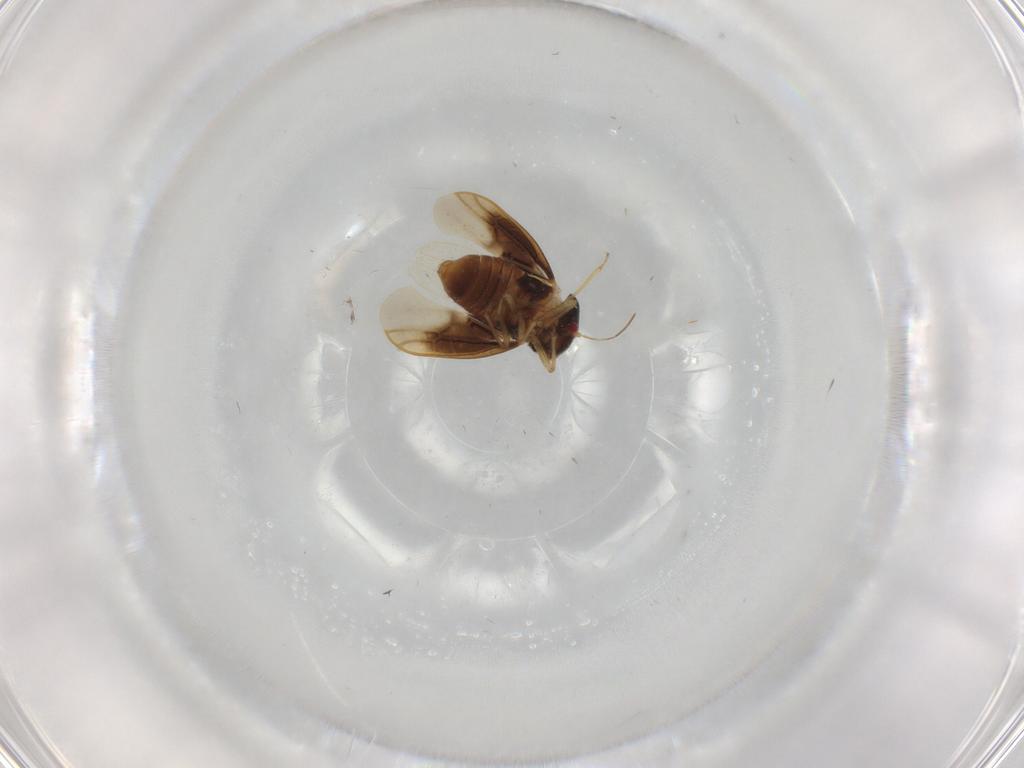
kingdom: Animalia
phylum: Arthropoda
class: Insecta
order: Hemiptera
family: Schizopteridae
